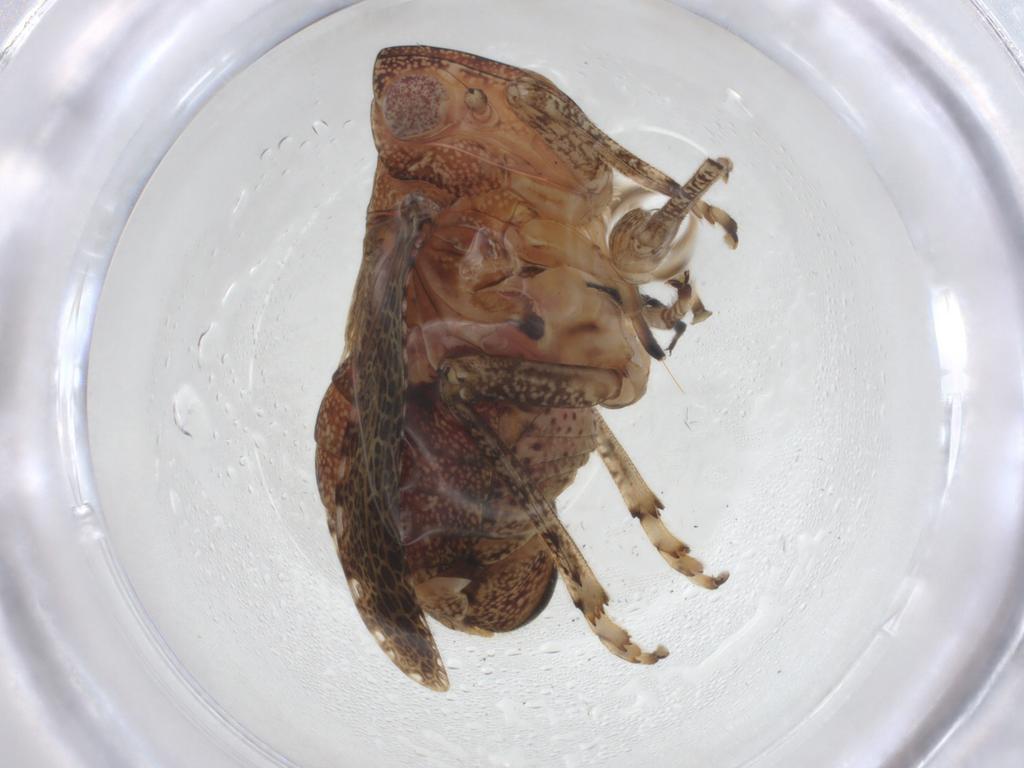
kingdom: Animalia
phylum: Arthropoda
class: Insecta
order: Hemiptera
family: Tropiduchidae
